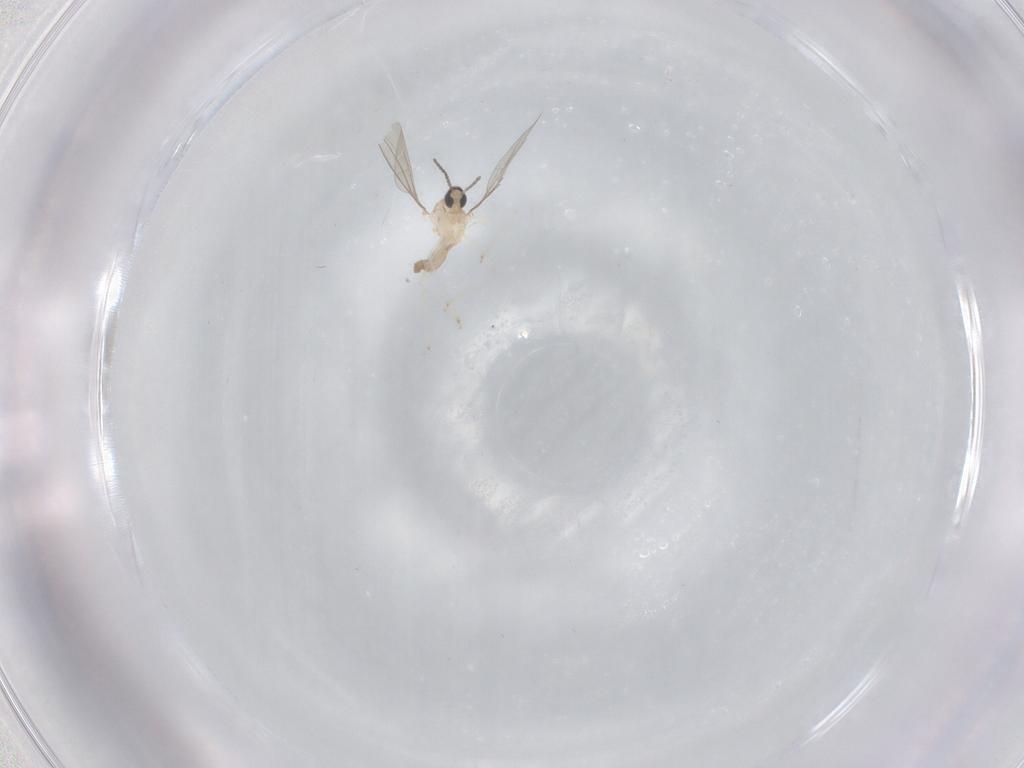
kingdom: Animalia
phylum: Arthropoda
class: Insecta
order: Diptera
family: Cecidomyiidae
